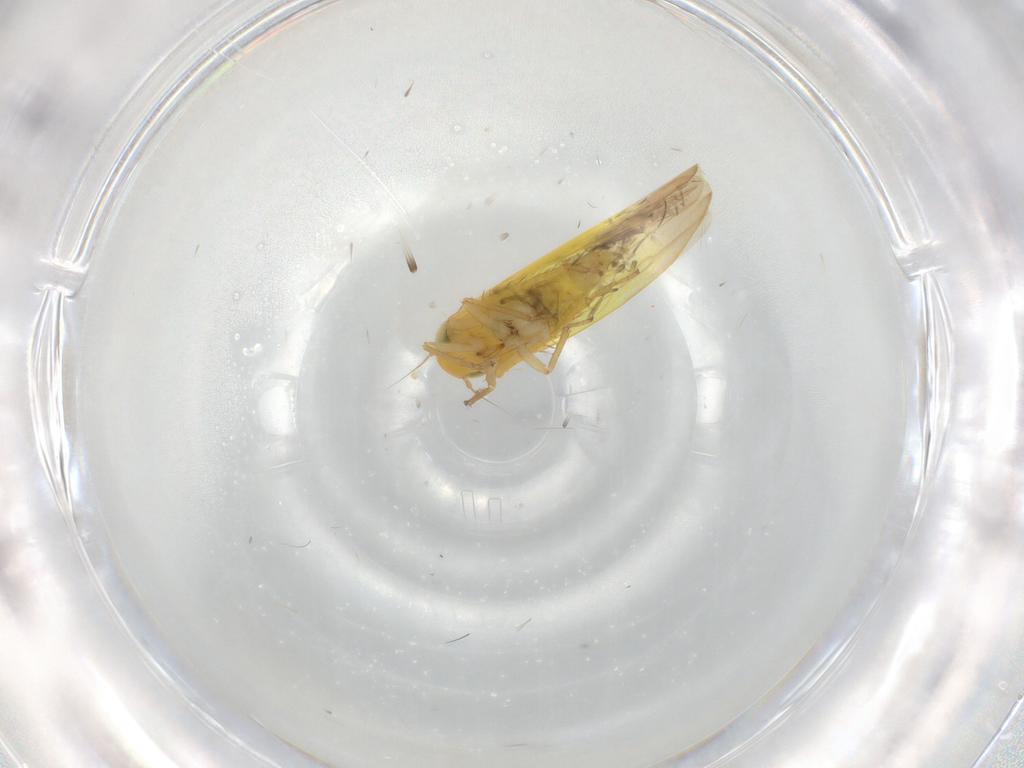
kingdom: Animalia
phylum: Arthropoda
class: Insecta
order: Hemiptera
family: Cicadellidae
